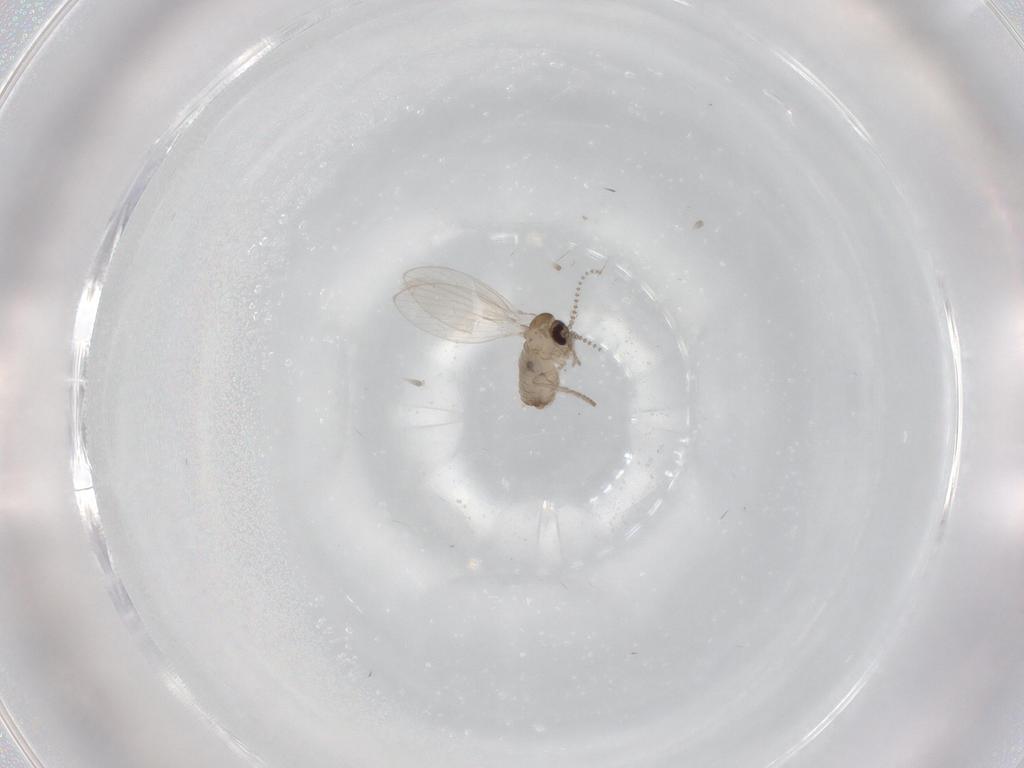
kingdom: Animalia
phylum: Arthropoda
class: Insecta
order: Diptera
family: Psychodidae
